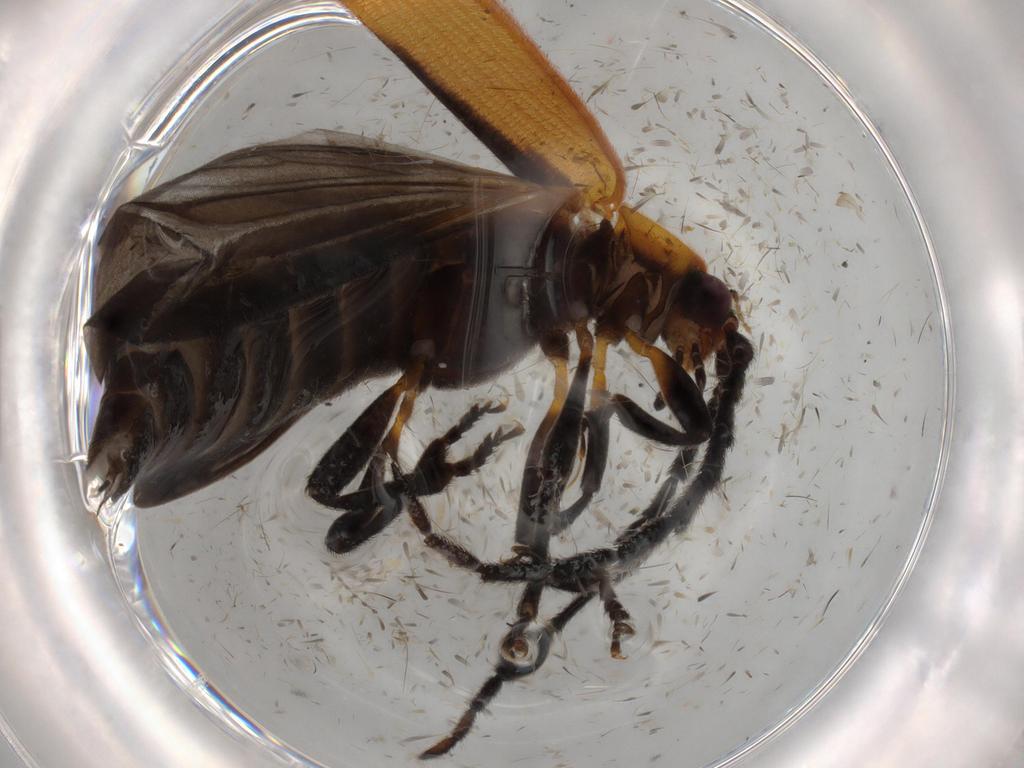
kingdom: Animalia
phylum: Arthropoda
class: Insecta
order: Coleoptera
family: Lycidae
